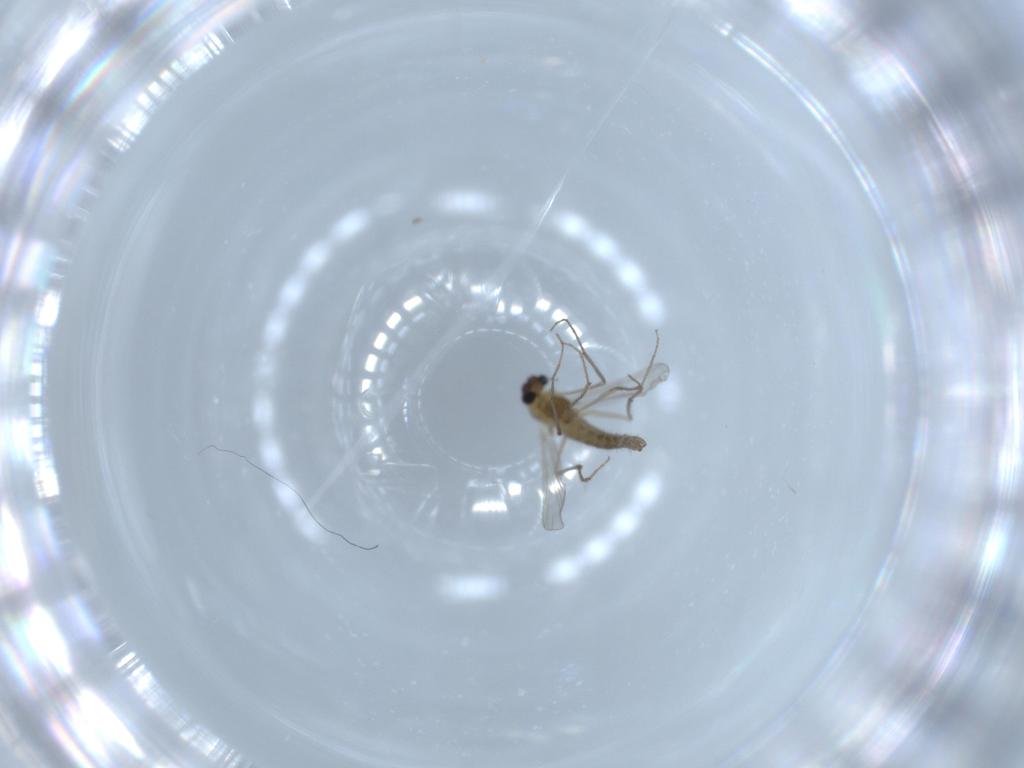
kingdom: Animalia
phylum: Arthropoda
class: Insecta
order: Diptera
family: Chironomidae
